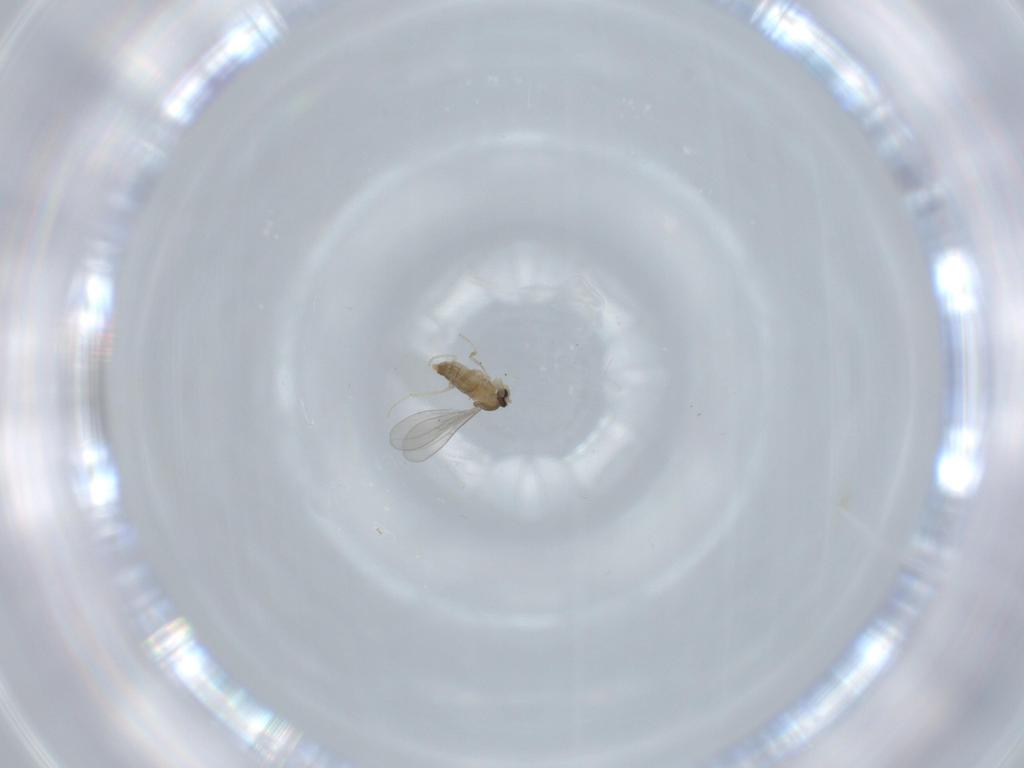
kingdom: Animalia
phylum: Arthropoda
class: Insecta
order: Diptera
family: Cecidomyiidae
